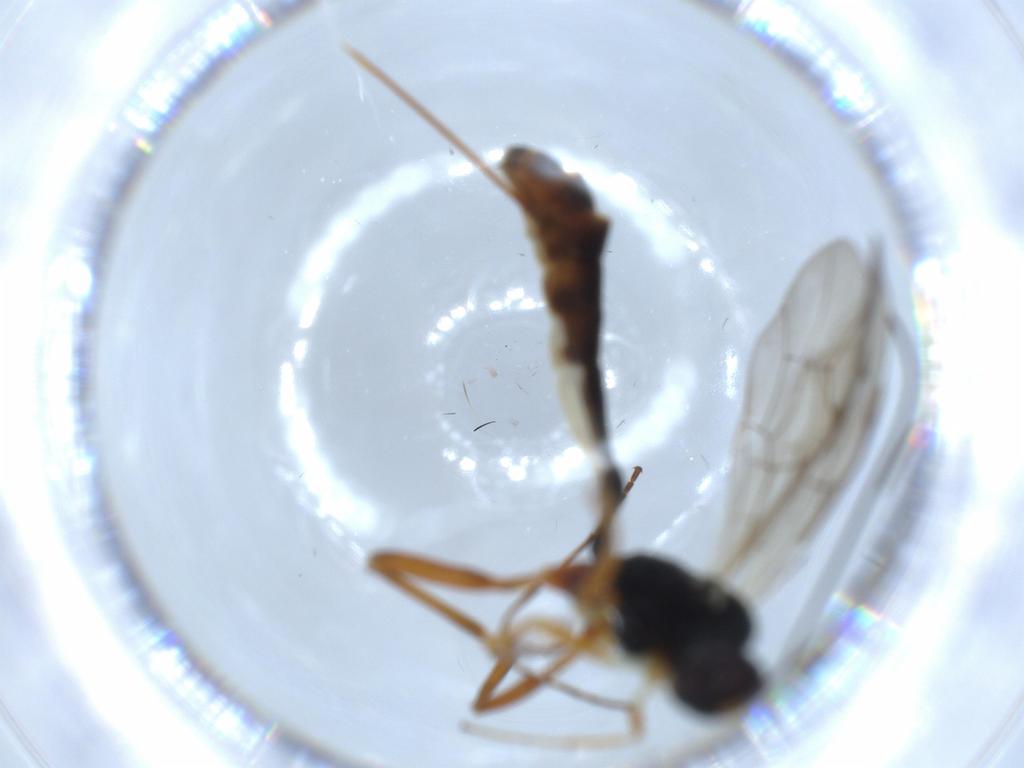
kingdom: Animalia
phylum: Arthropoda
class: Insecta
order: Hymenoptera
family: Ichneumonidae
